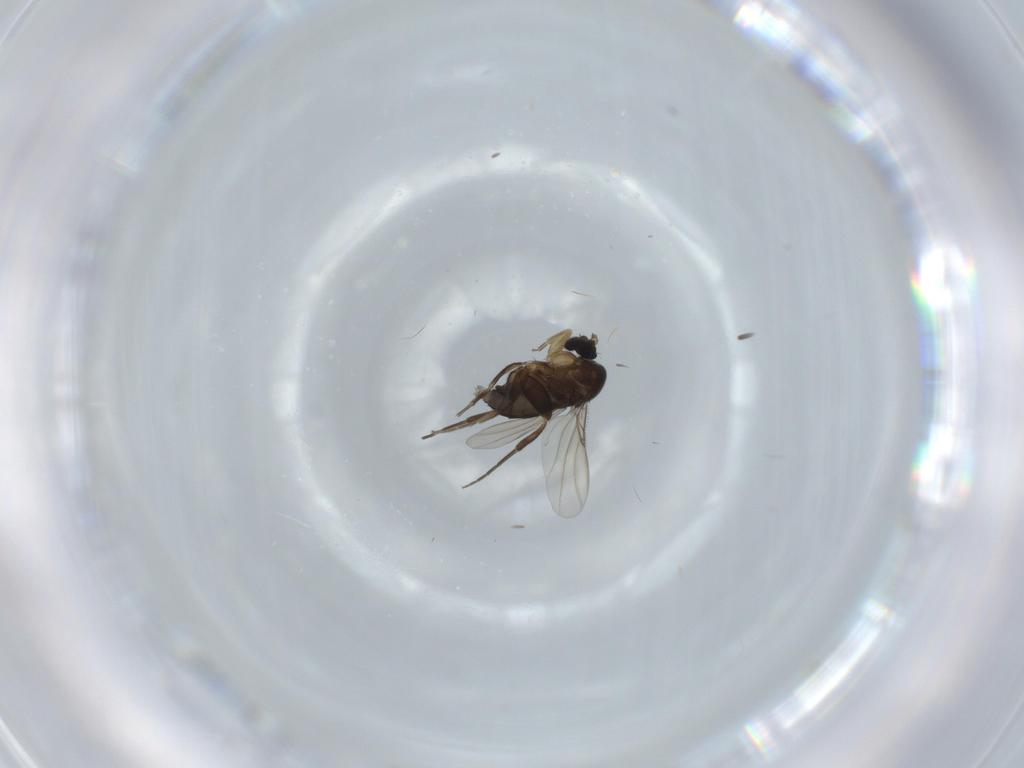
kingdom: Animalia
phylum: Arthropoda
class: Insecta
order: Diptera
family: Phoridae
